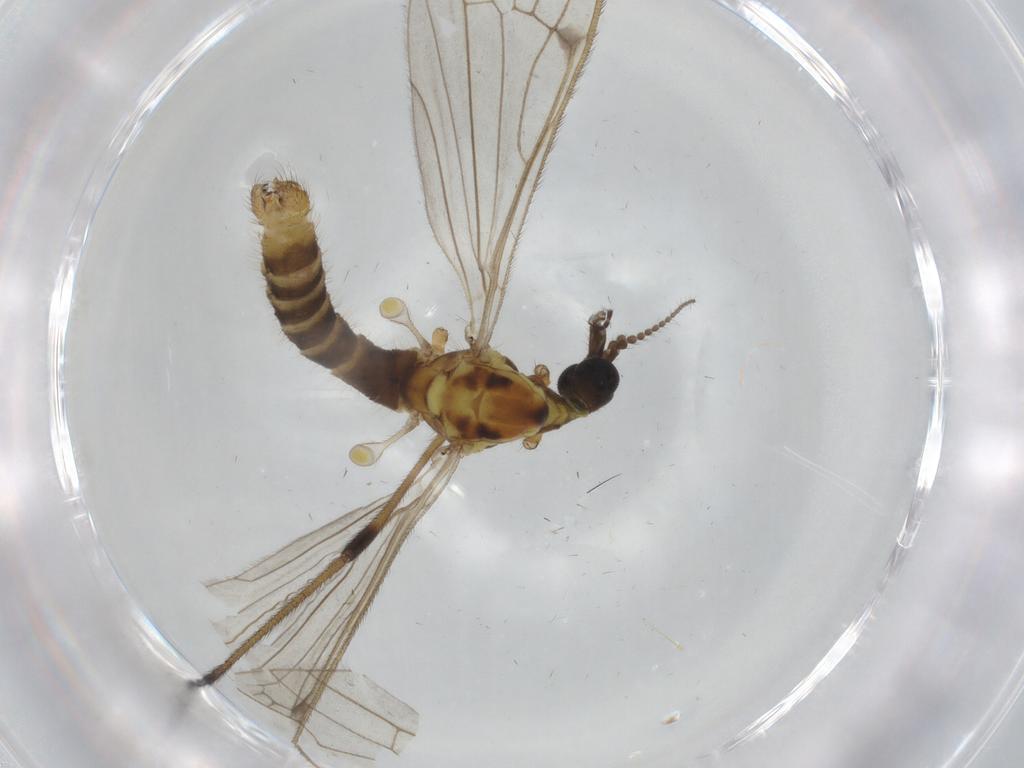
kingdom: Animalia
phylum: Arthropoda
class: Insecta
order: Diptera
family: Limoniidae
